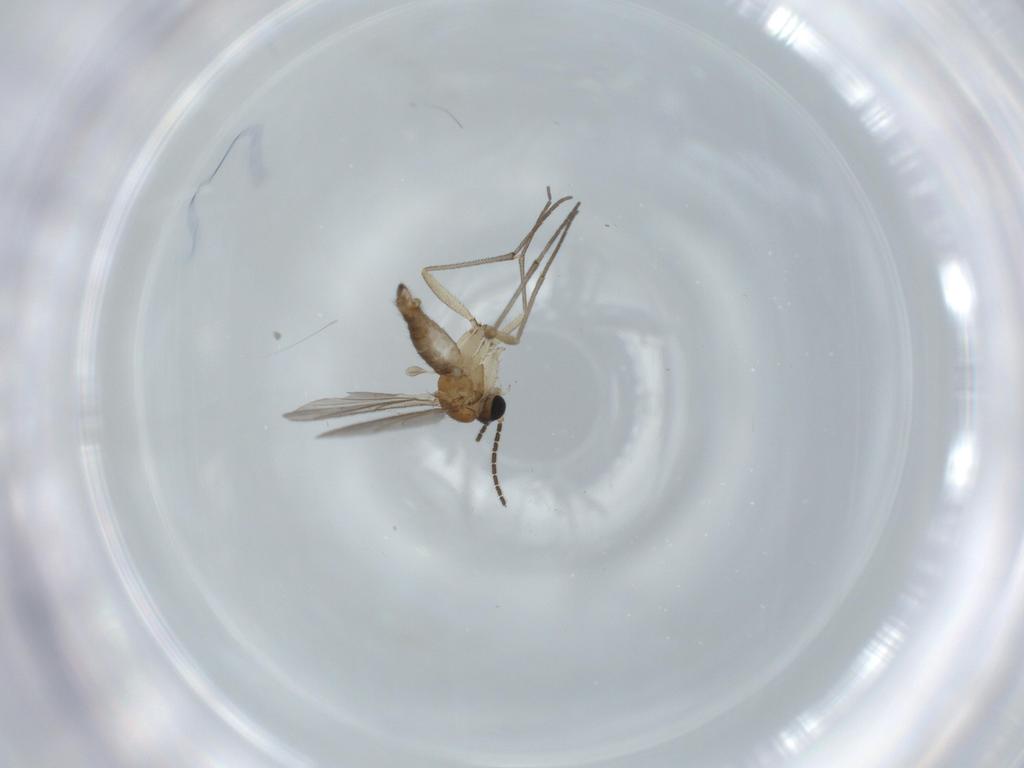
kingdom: Animalia
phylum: Arthropoda
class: Insecta
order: Diptera
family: Sciaridae
